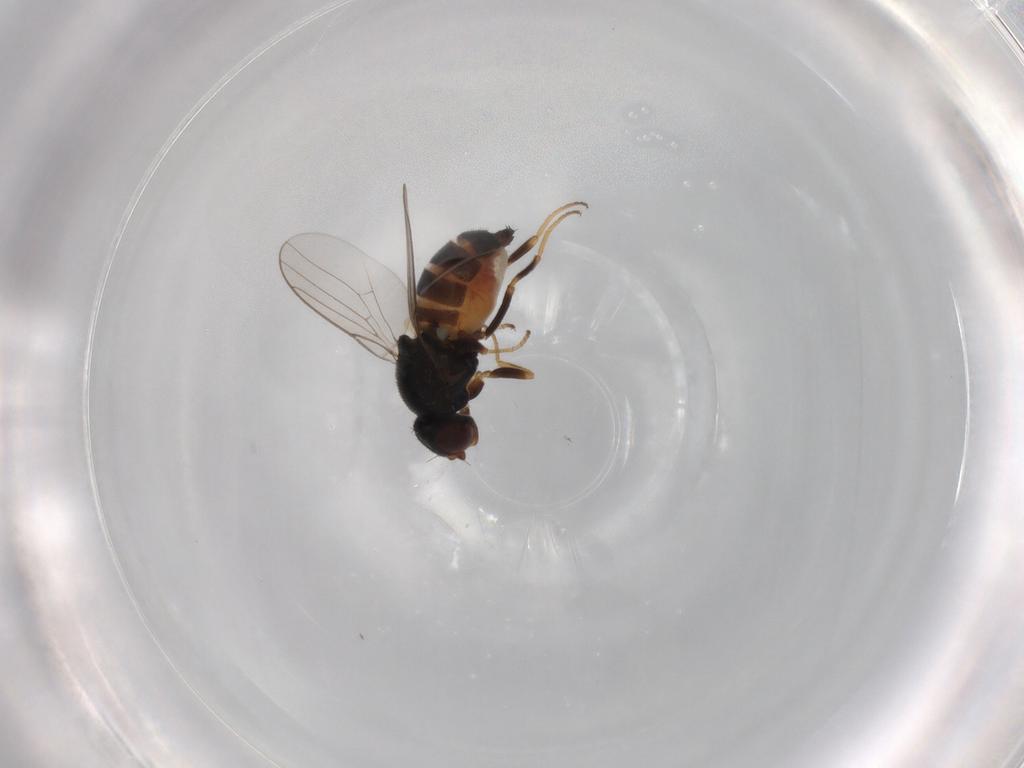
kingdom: Animalia
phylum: Arthropoda
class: Insecta
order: Diptera
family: Chloropidae
